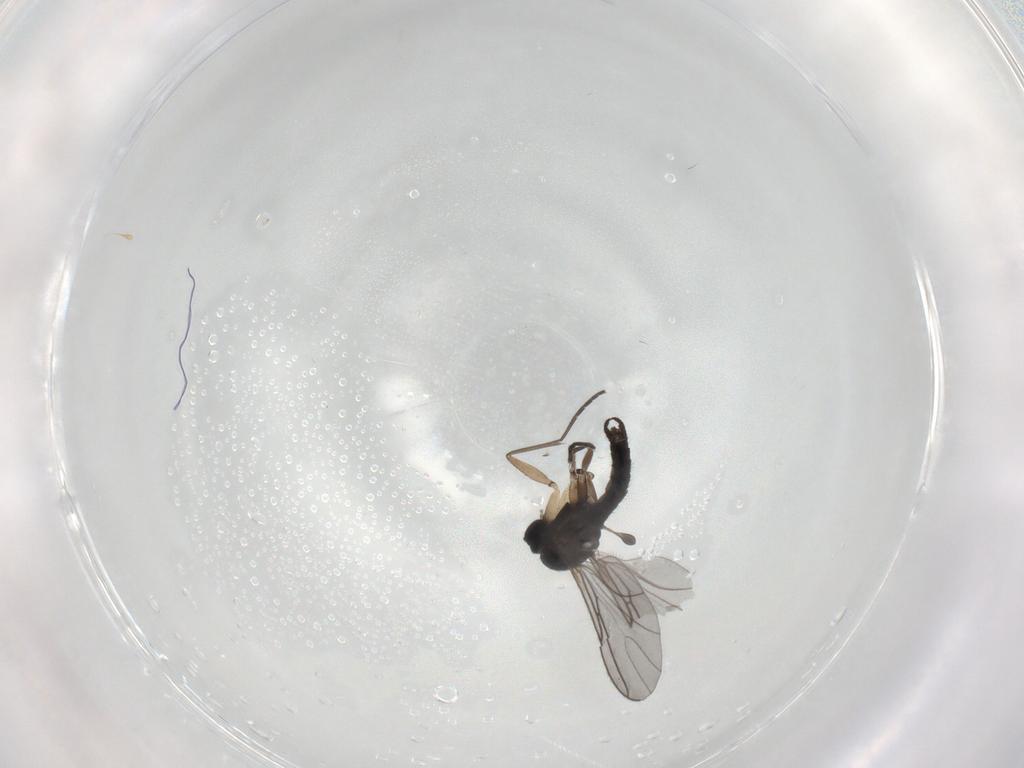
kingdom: Animalia
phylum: Arthropoda
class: Insecta
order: Diptera
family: Sciaridae
